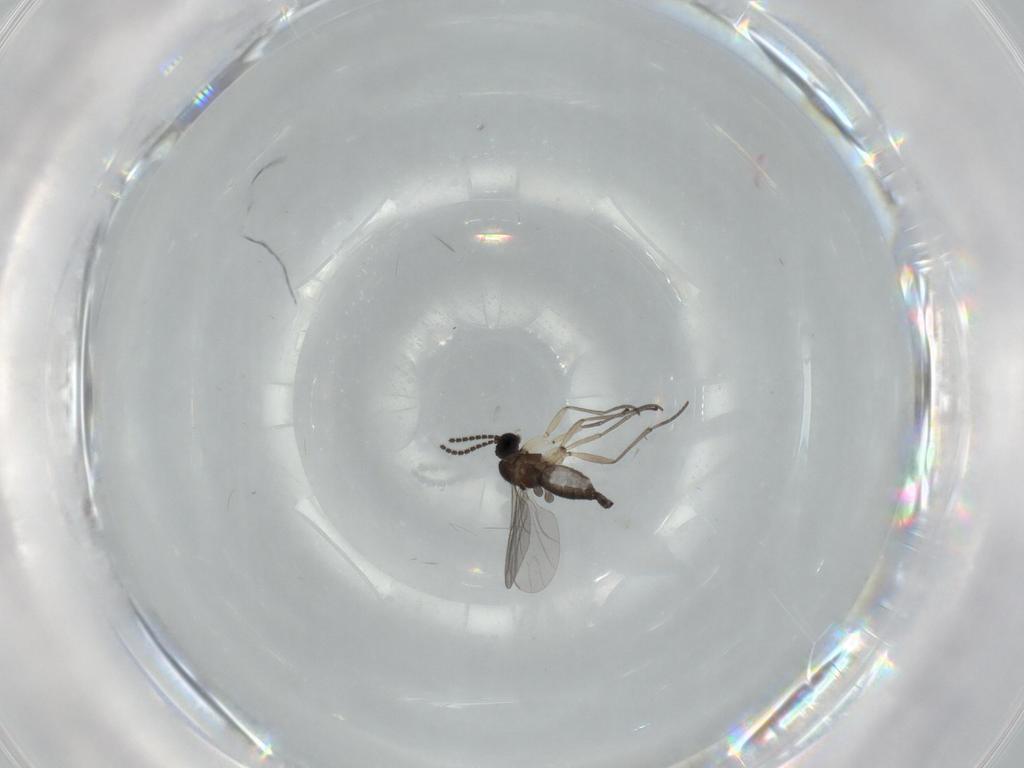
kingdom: Animalia
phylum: Arthropoda
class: Insecta
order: Diptera
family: Sciaridae
